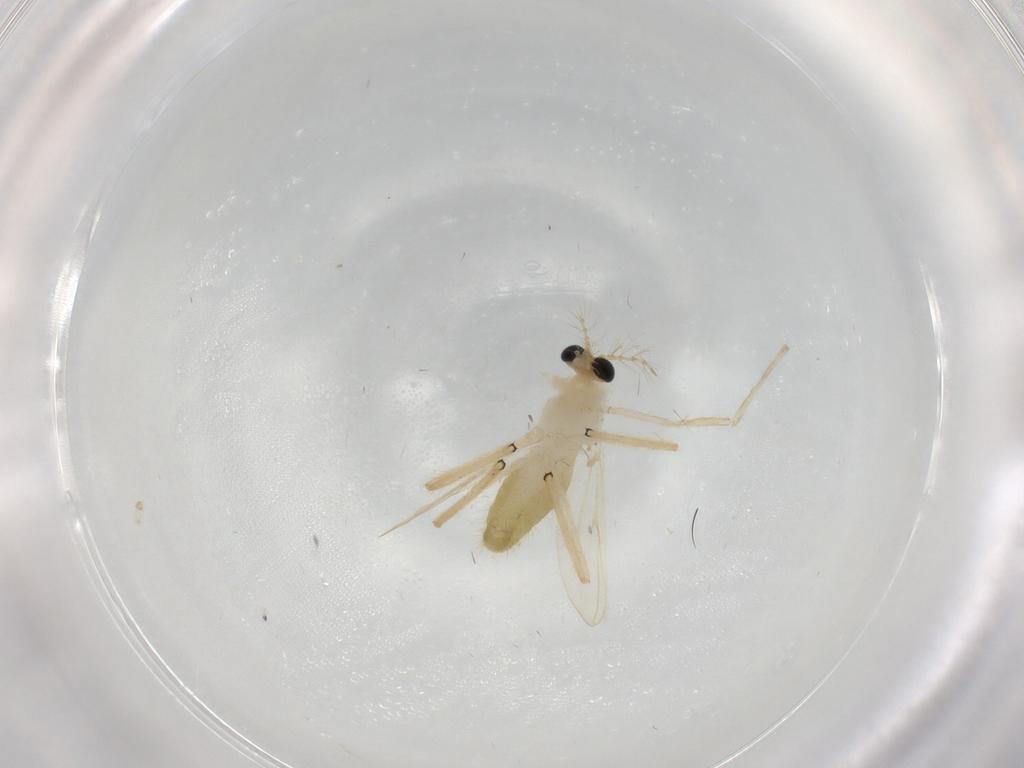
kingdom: Animalia
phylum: Arthropoda
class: Insecta
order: Diptera
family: Chironomidae
